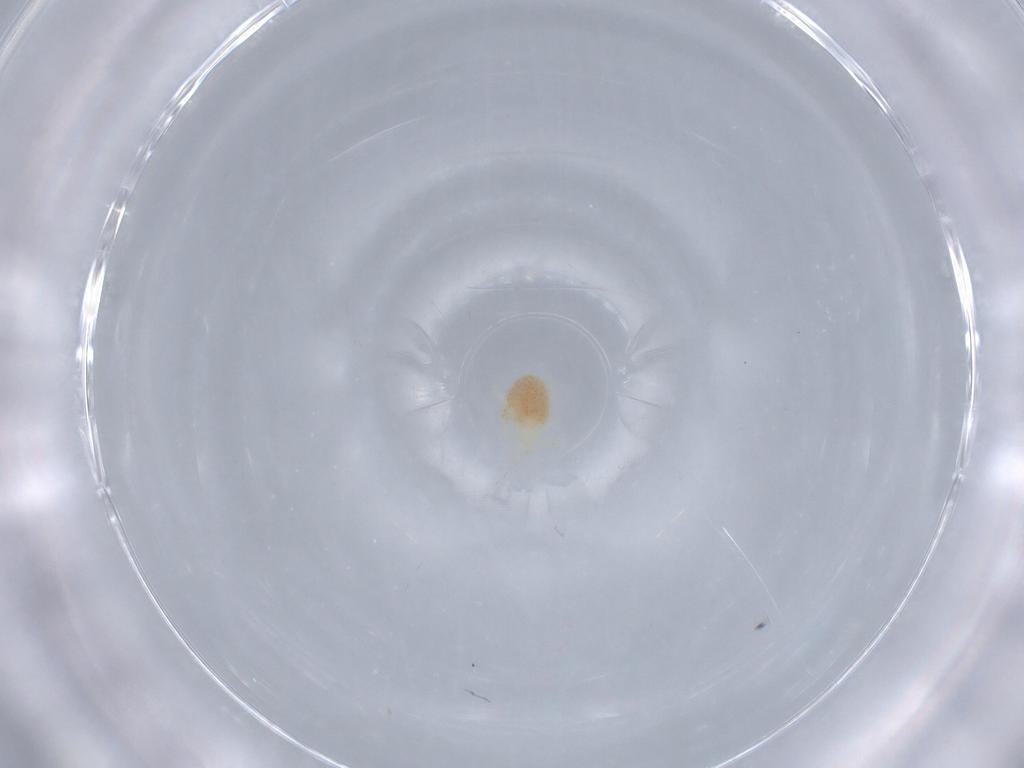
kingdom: Animalia
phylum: Arthropoda
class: Arachnida
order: Trombidiformes
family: Erythraeidae
